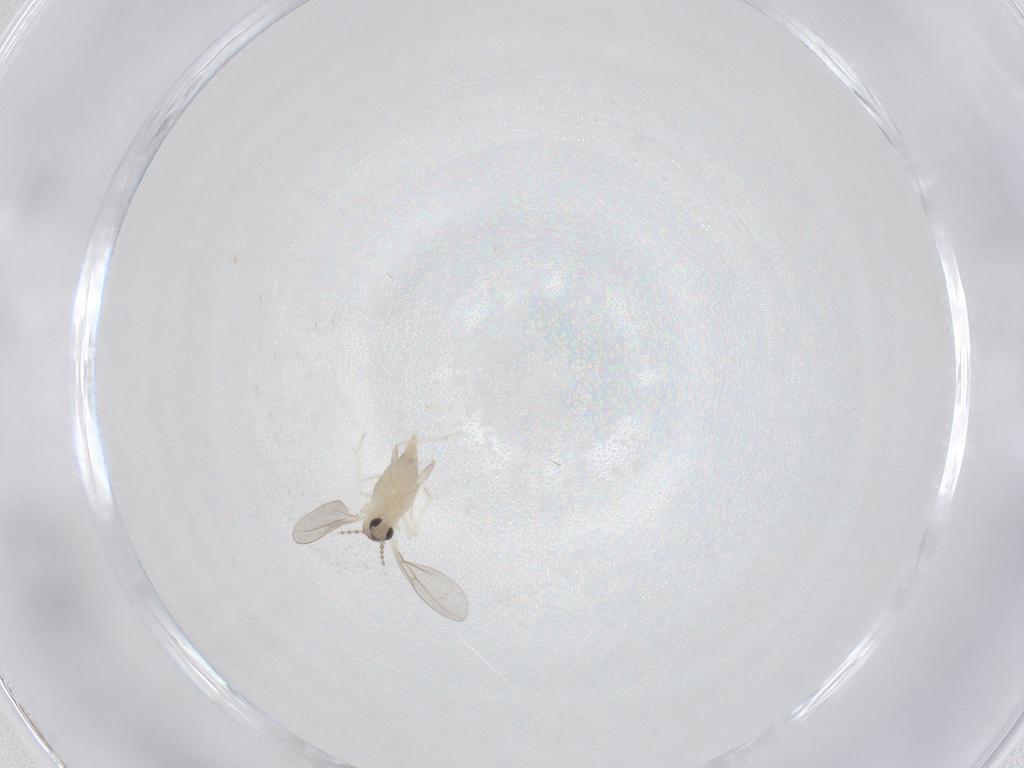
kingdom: Animalia
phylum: Arthropoda
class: Insecta
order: Diptera
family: Cecidomyiidae
